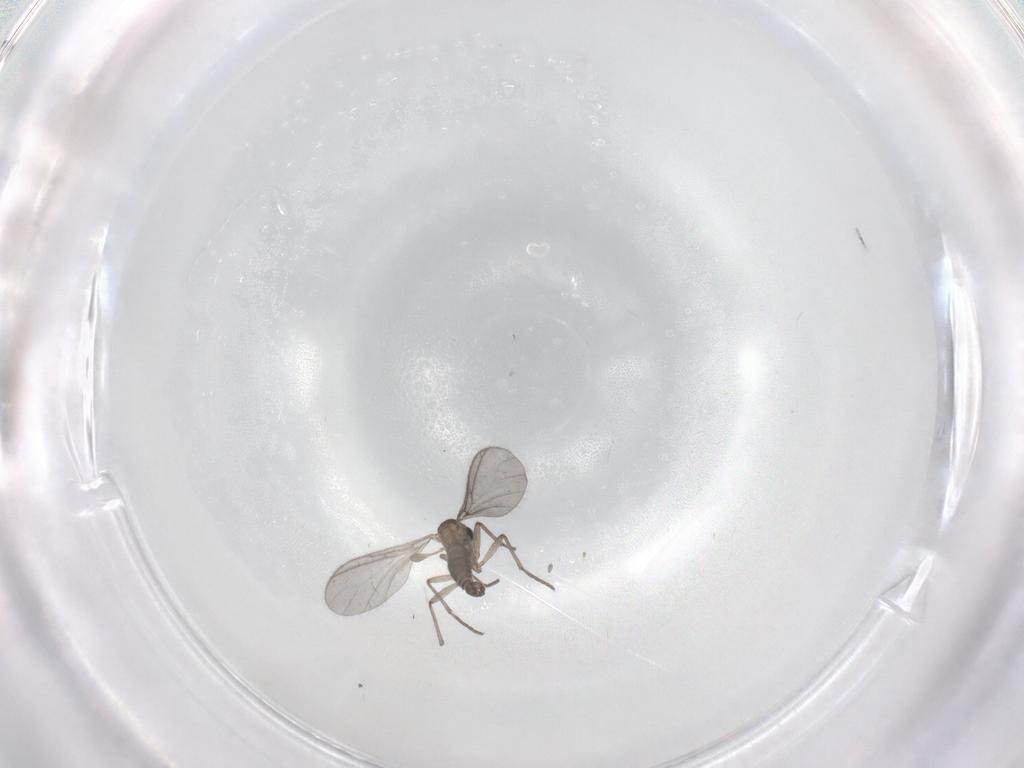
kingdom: Animalia
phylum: Arthropoda
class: Insecta
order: Diptera
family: Sciaridae
